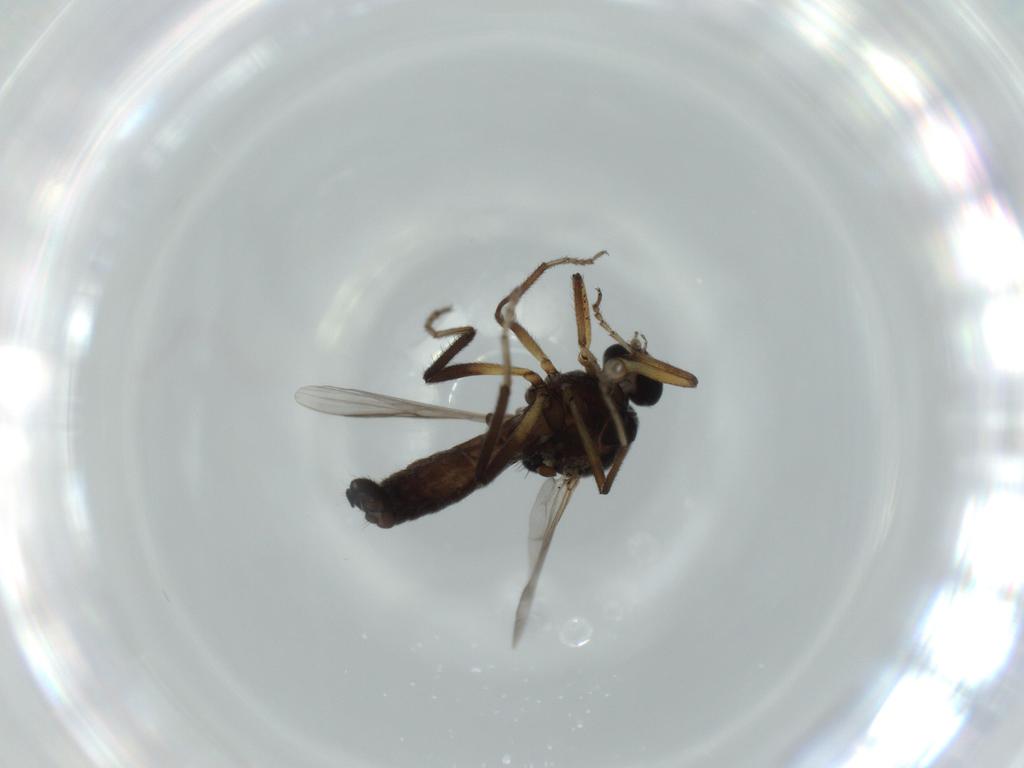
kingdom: Animalia
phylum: Arthropoda
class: Insecta
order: Diptera
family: Ceratopogonidae
